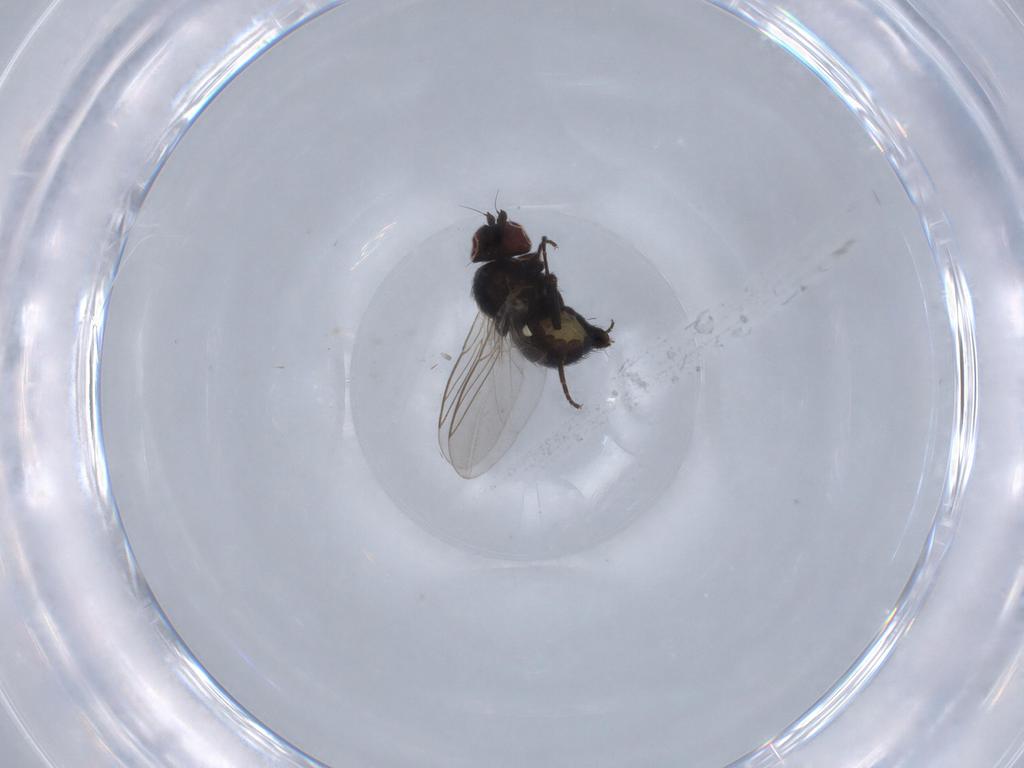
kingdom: Animalia
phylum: Arthropoda
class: Insecta
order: Diptera
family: Agromyzidae
